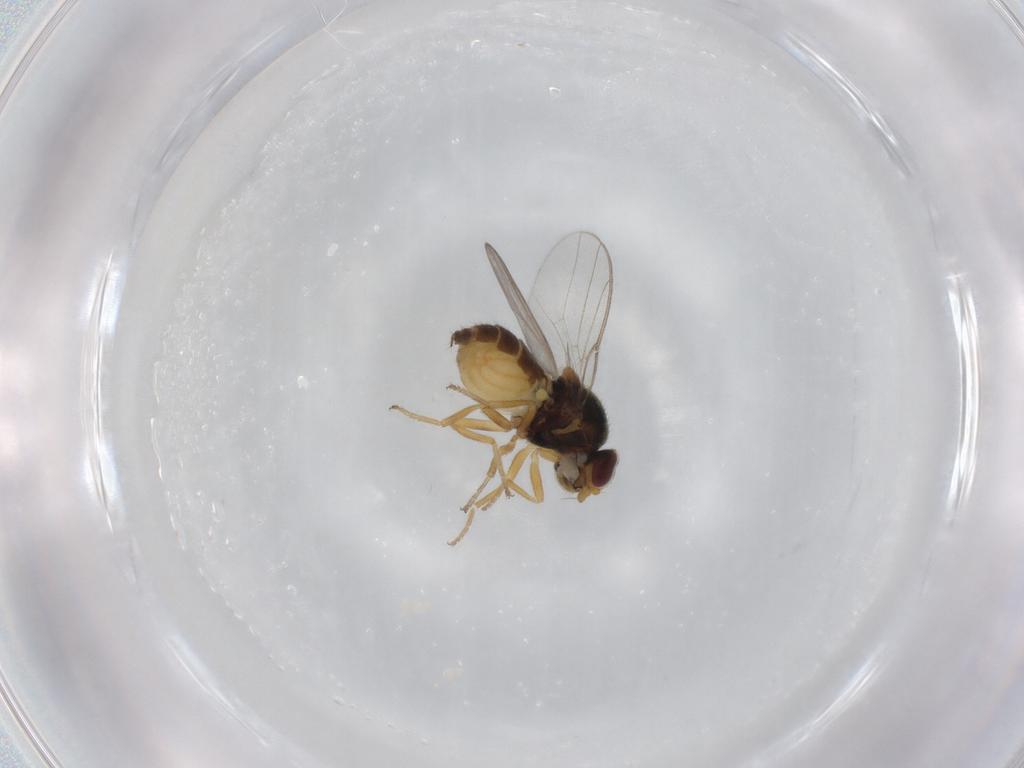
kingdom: Animalia
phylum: Arthropoda
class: Insecta
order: Diptera
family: Chloropidae
